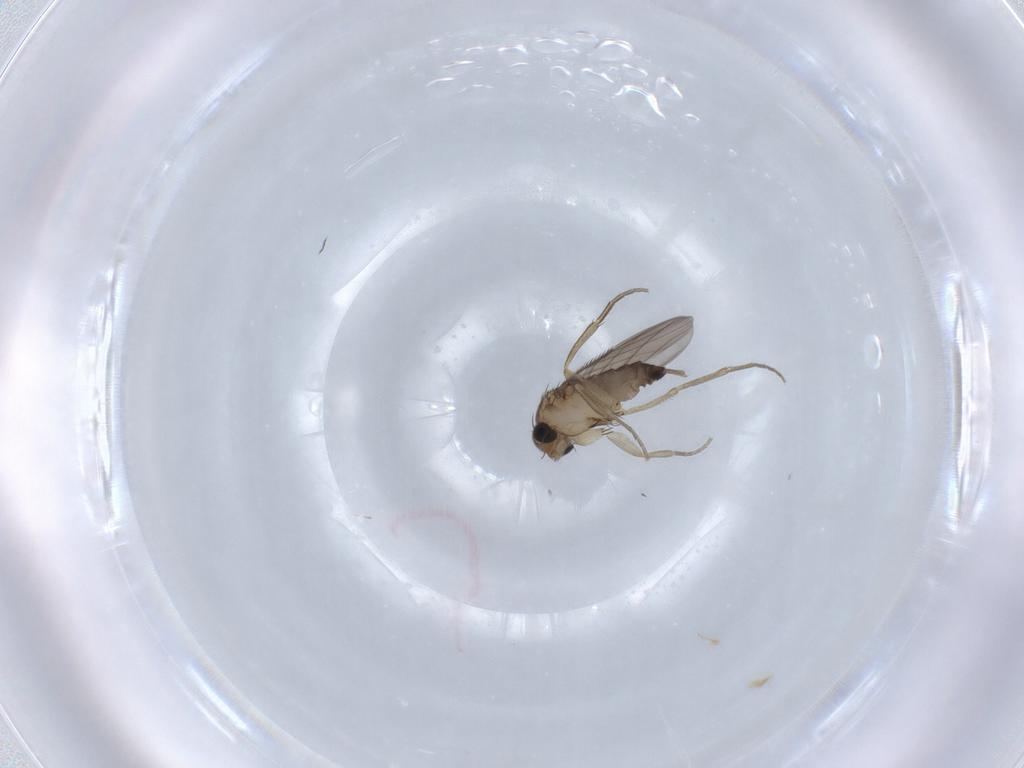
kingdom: Animalia
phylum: Arthropoda
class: Insecta
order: Diptera
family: Phoridae
